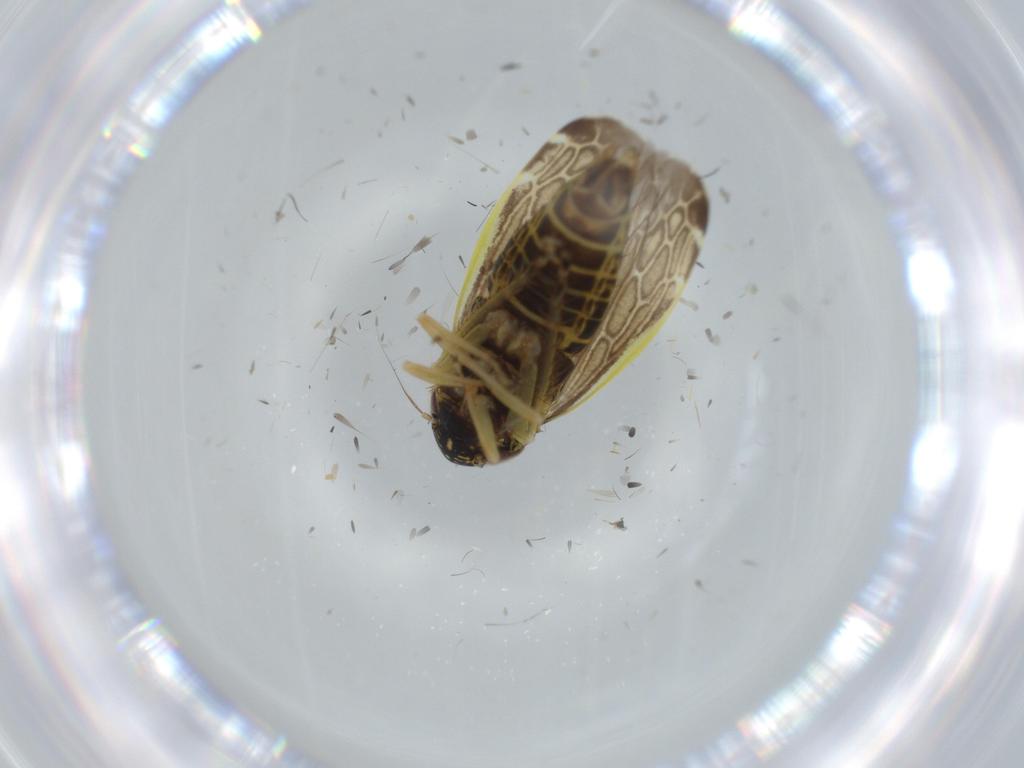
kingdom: Animalia
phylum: Arthropoda
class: Insecta
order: Hemiptera
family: Cicadellidae
